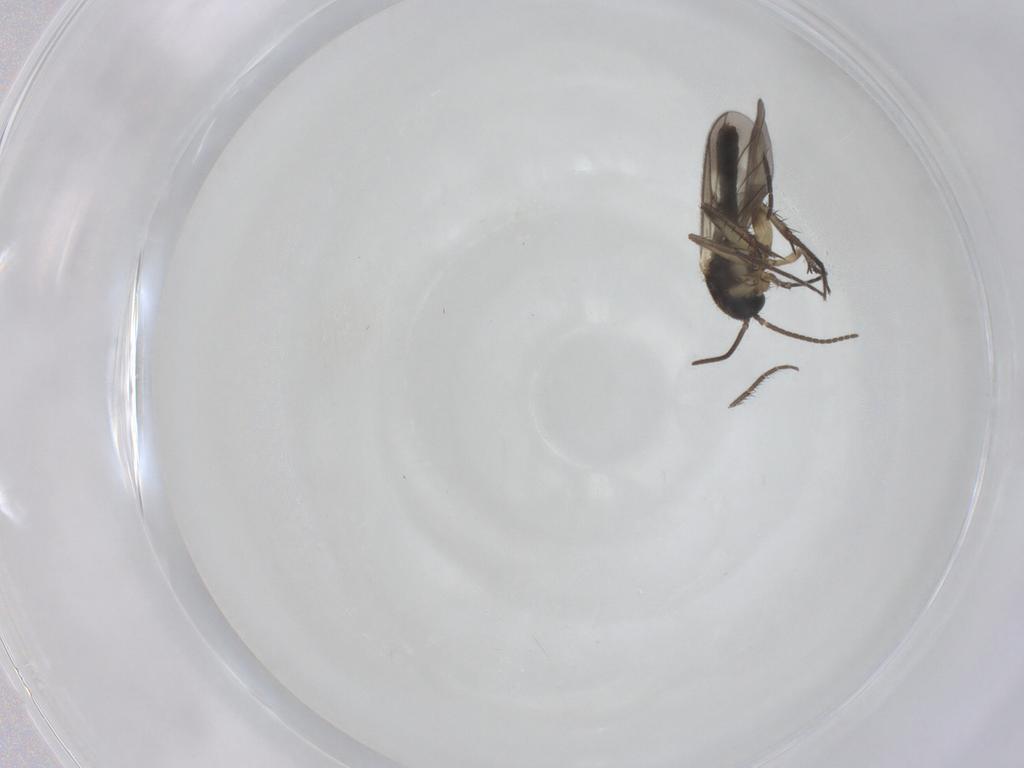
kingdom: Animalia
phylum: Arthropoda
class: Insecta
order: Diptera
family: Mycetophilidae
